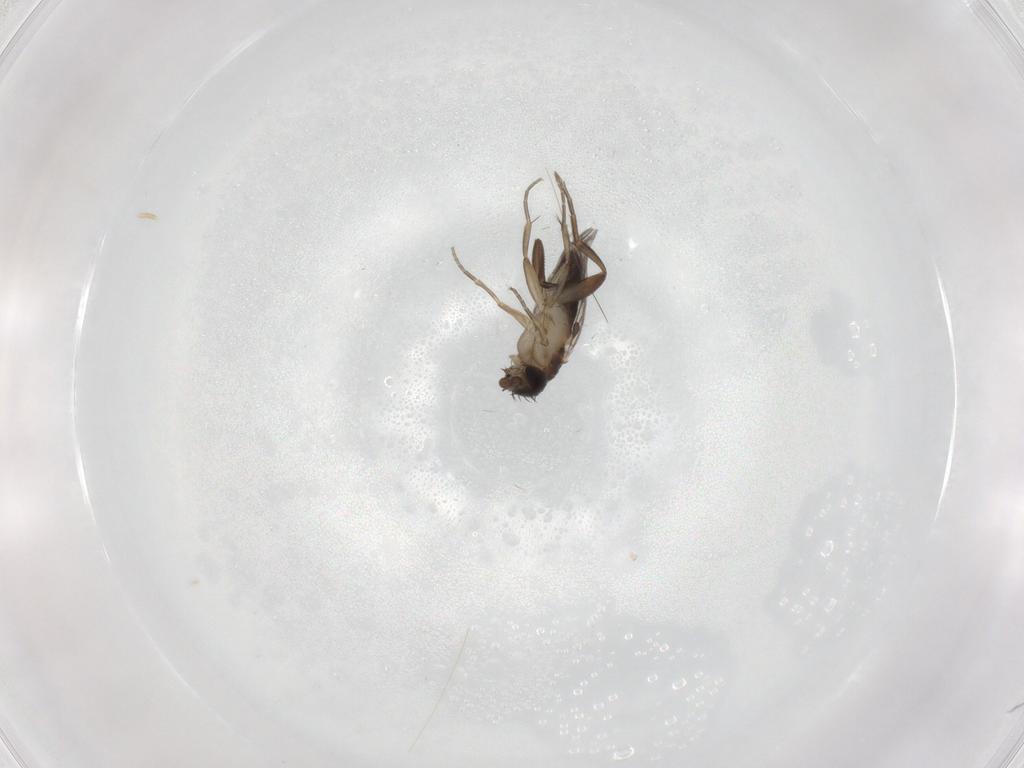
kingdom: Animalia
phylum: Arthropoda
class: Insecta
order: Diptera
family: Phoridae
